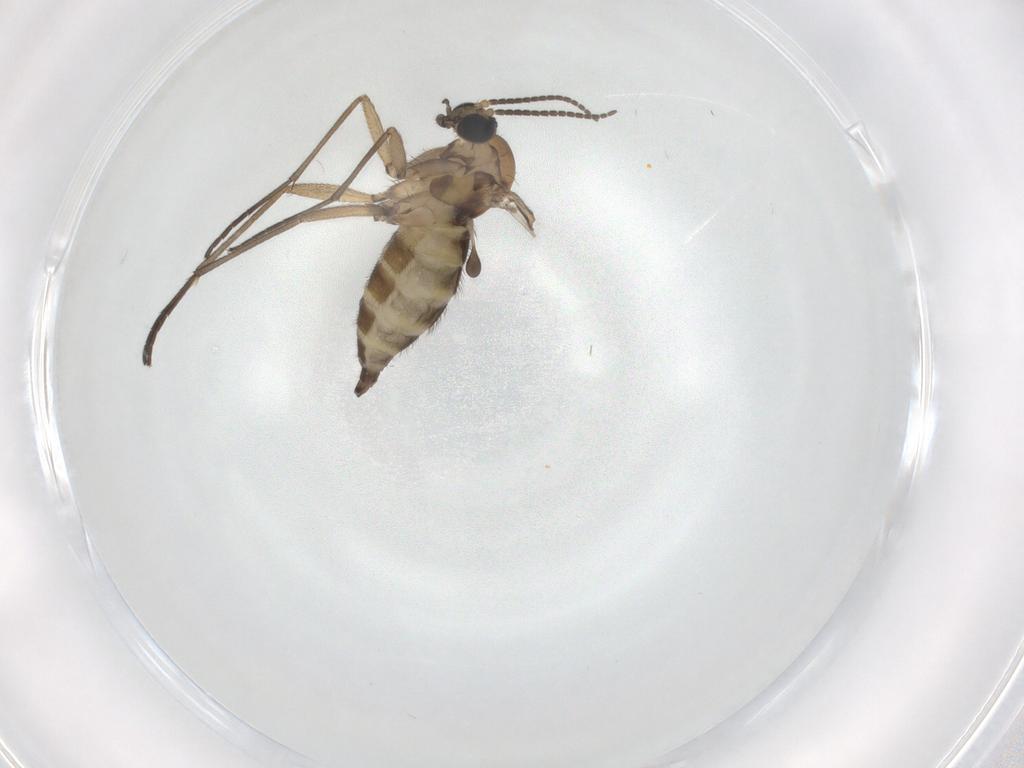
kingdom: Animalia
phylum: Arthropoda
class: Insecta
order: Diptera
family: Sciaridae
